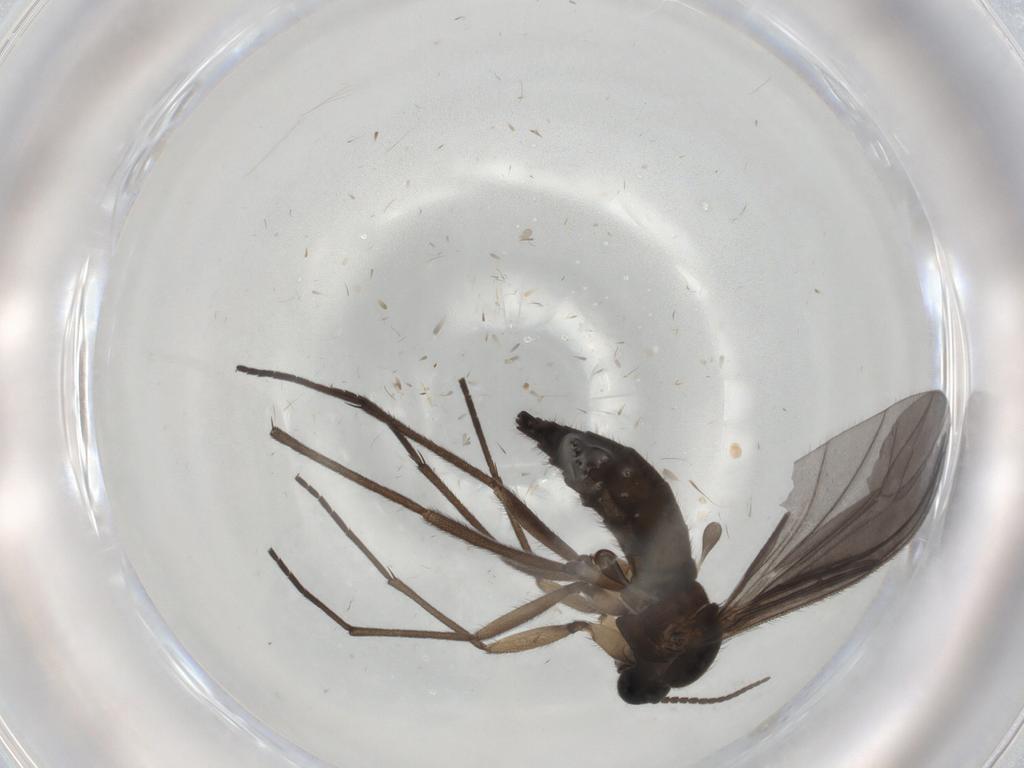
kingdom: Animalia
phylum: Arthropoda
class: Insecta
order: Diptera
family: Sciaridae
